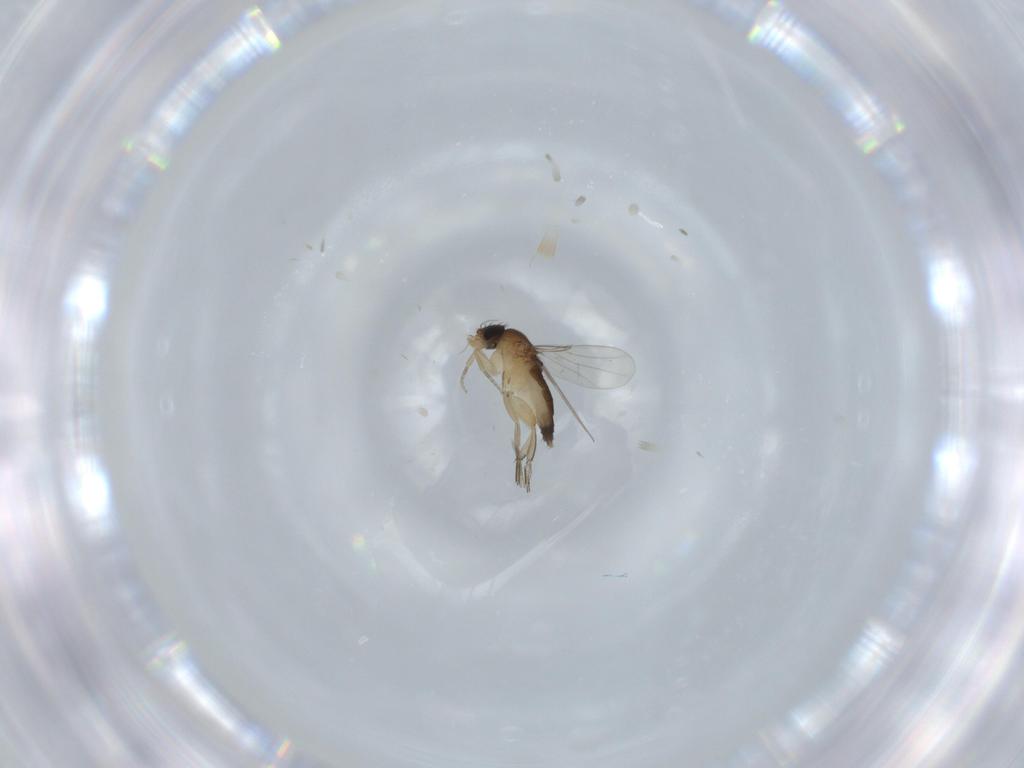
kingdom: Animalia
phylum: Arthropoda
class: Insecta
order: Diptera
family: Phoridae
